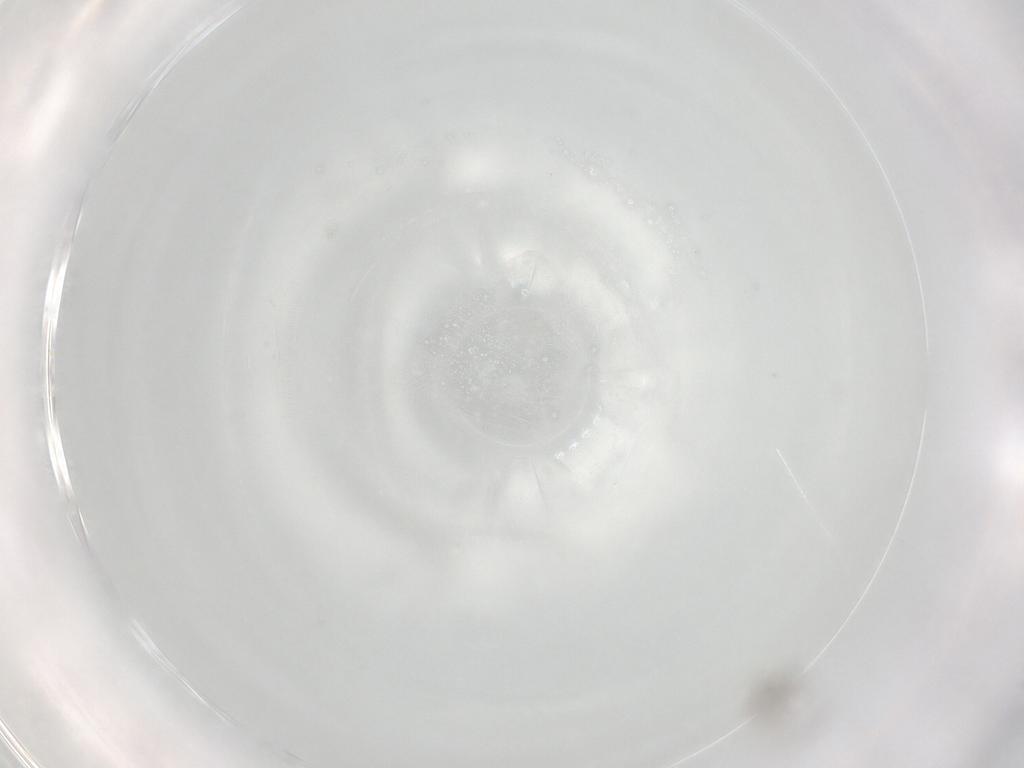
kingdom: Animalia
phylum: Arthropoda
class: Insecta
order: Diptera
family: Cecidomyiidae
